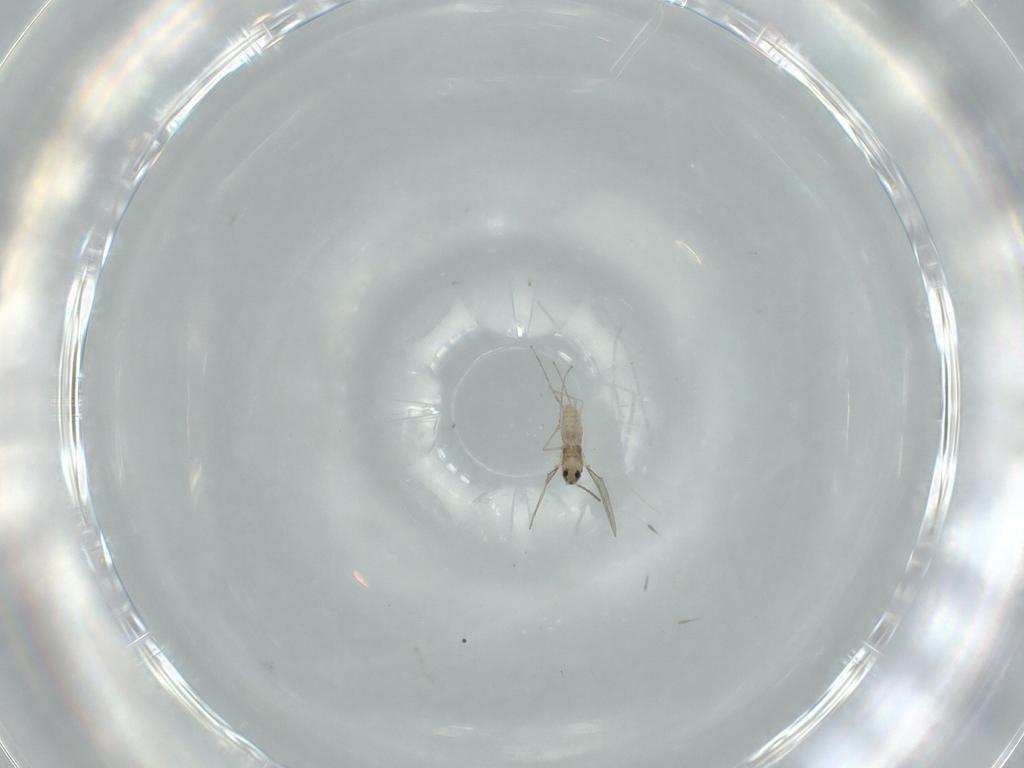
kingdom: Animalia
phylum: Arthropoda
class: Insecta
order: Diptera
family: Cecidomyiidae
